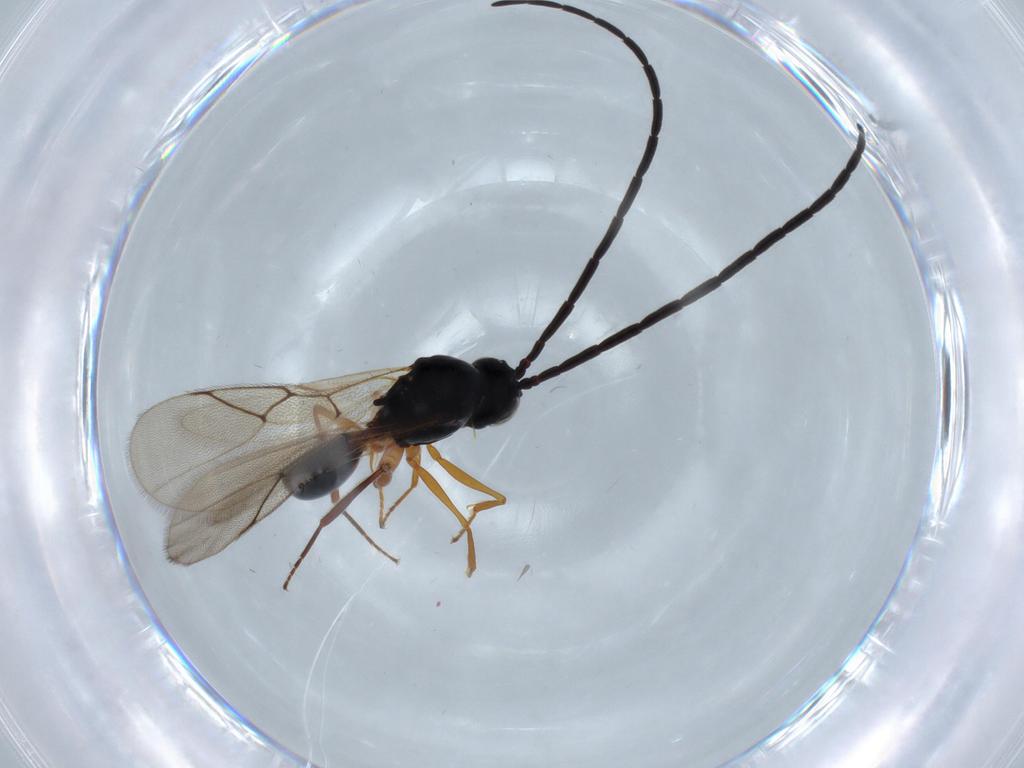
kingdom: Animalia
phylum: Arthropoda
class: Insecta
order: Hymenoptera
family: Figitidae
